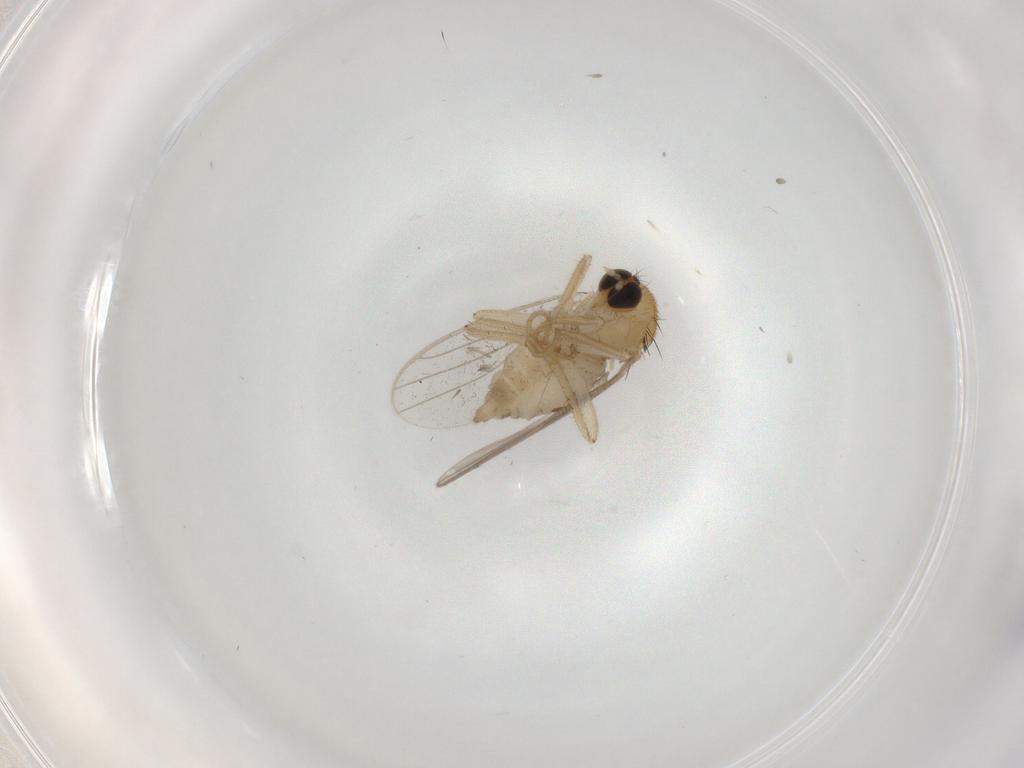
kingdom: Animalia
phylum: Arthropoda
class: Insecta
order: Diptera
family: Hybotidae
